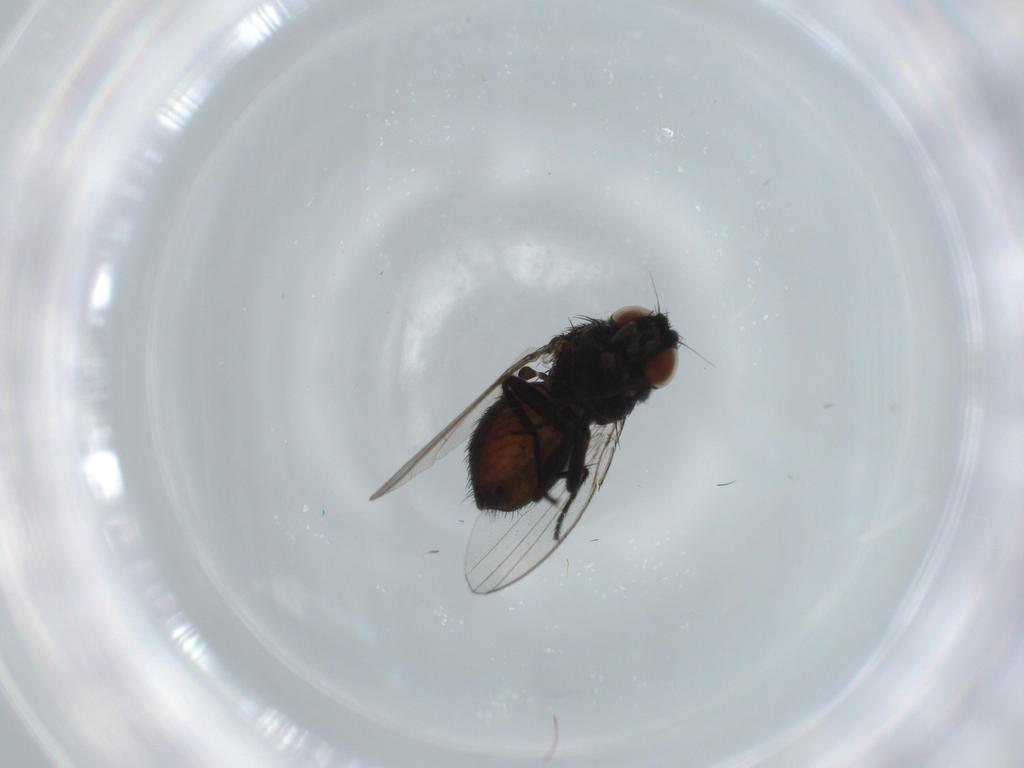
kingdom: Animalia
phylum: Arthropoda
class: Insecta
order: Diptera
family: Milichiidae
